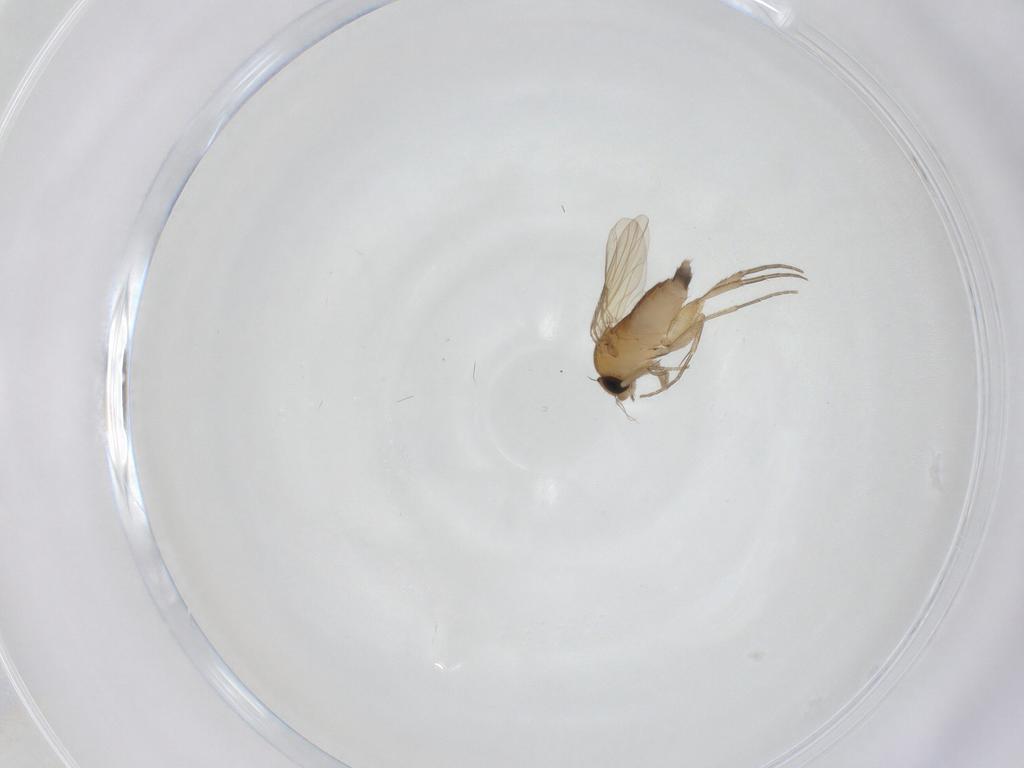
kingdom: Animalia
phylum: Arthropoda
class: Insecta
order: Diptera
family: Phoridae
